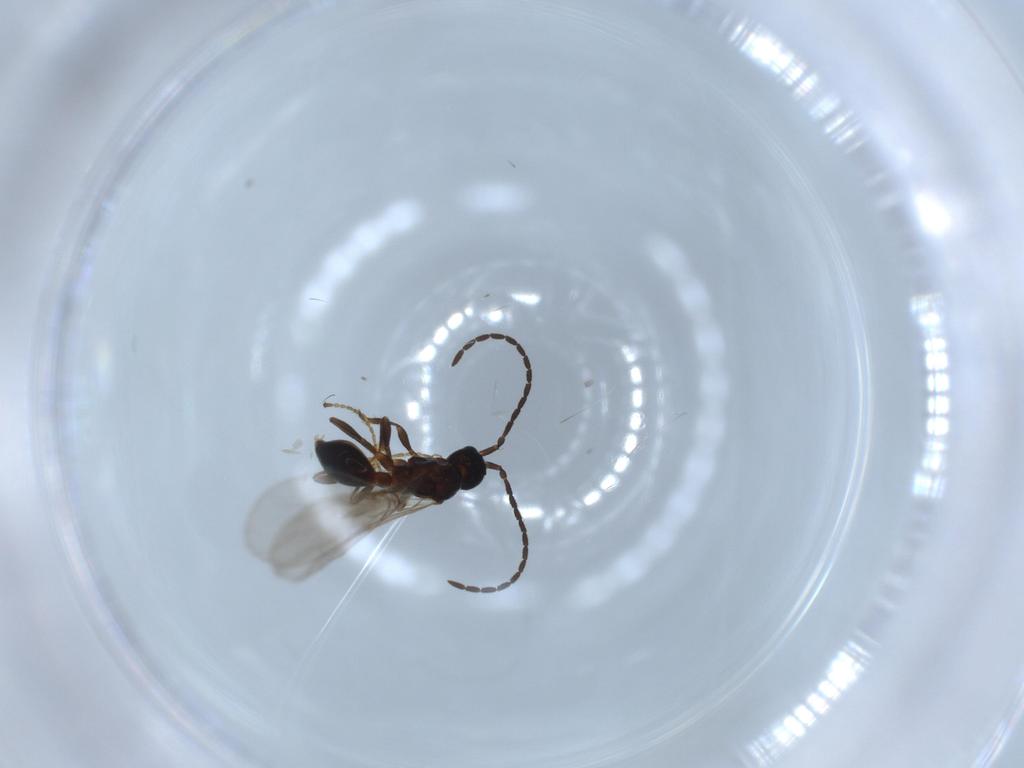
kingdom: Animalia
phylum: Arthropoda
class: Insecta
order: Hymenoptera
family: Diapriidae
